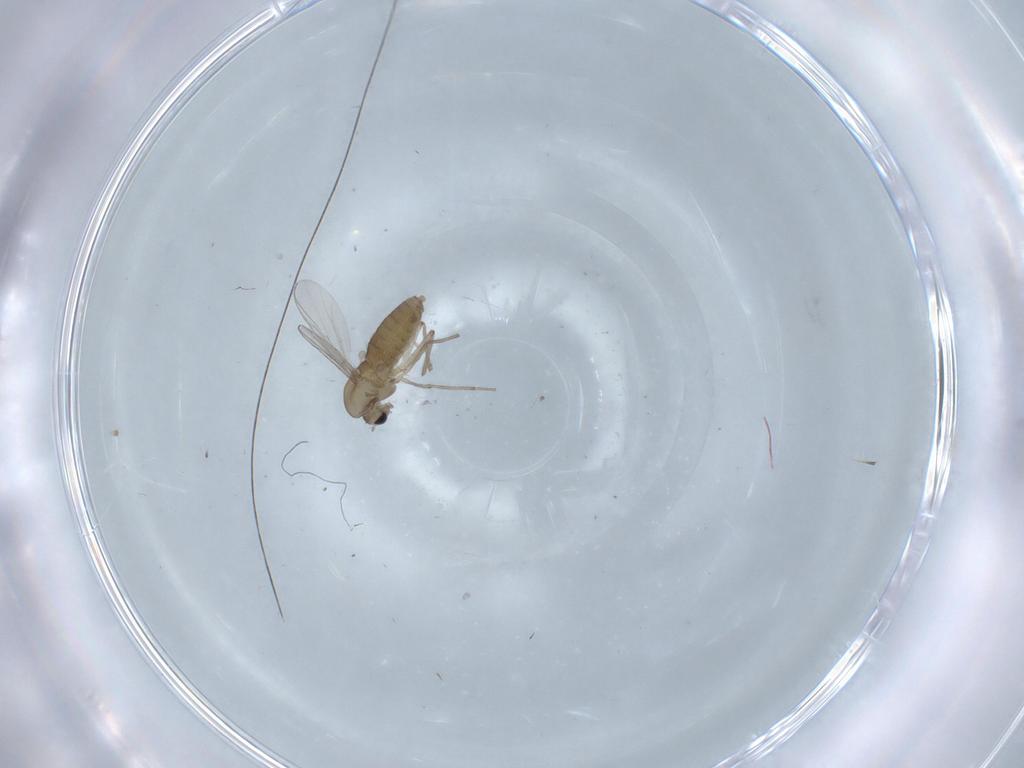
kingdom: Animalia
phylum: Arthropoda
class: Insecta
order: Diptera
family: Chironomidae
